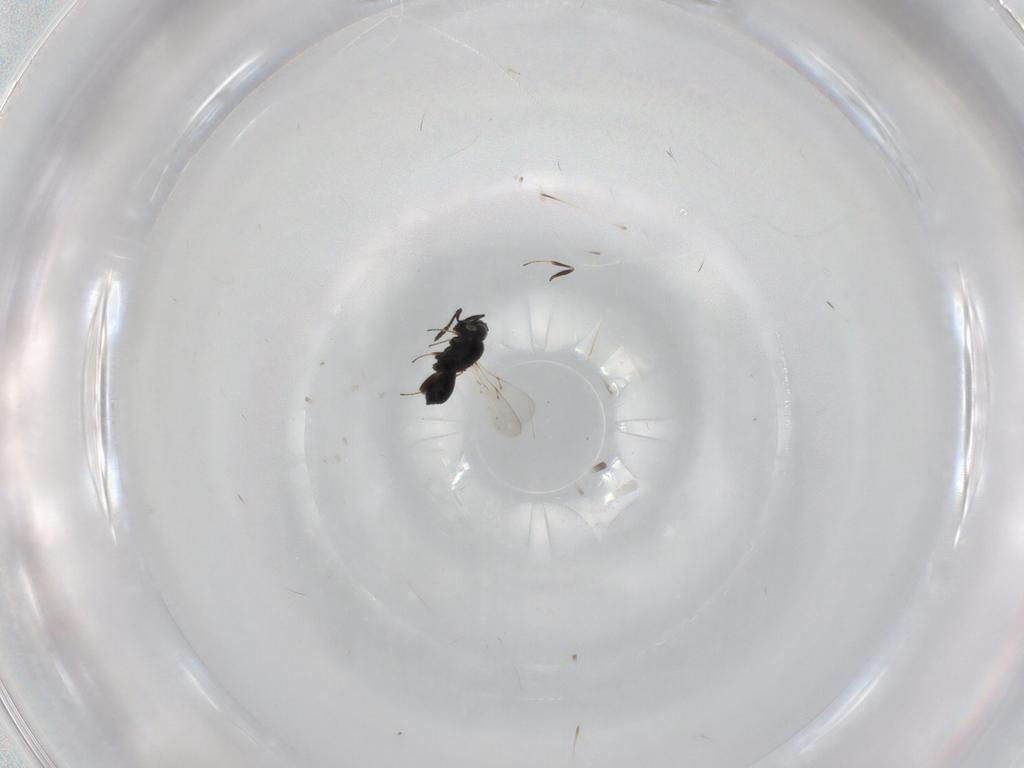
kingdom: Animalia
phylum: Arthropoda
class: Insecta
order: Hymenoptera
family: Scelionidae
